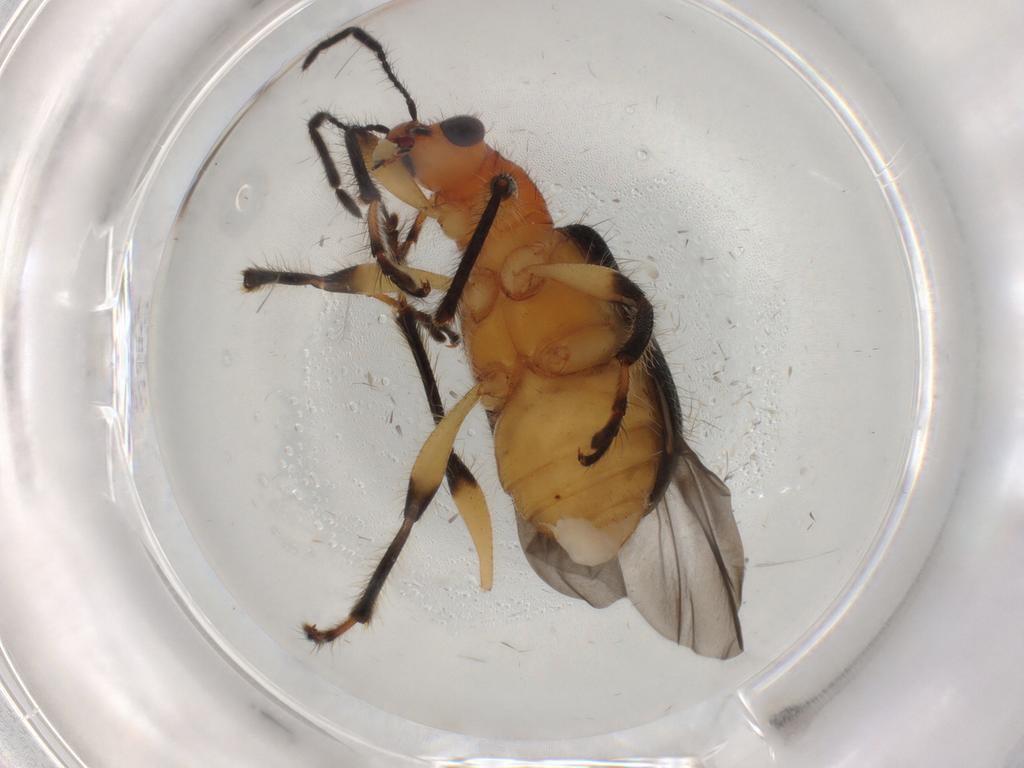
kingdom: Animalia
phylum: Arthropoda
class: Insecta
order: Coleoptera
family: Attelabidae
